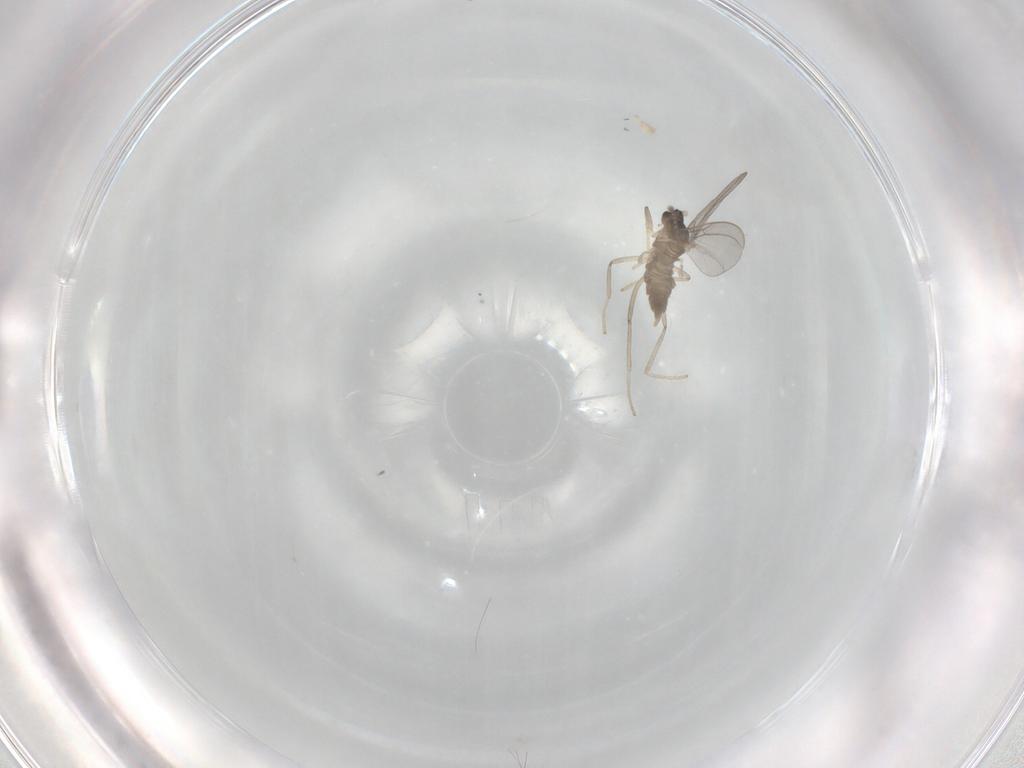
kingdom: Animalia
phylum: Arthropoda
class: Insecta
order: Diptera
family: Cecidomyiidae
